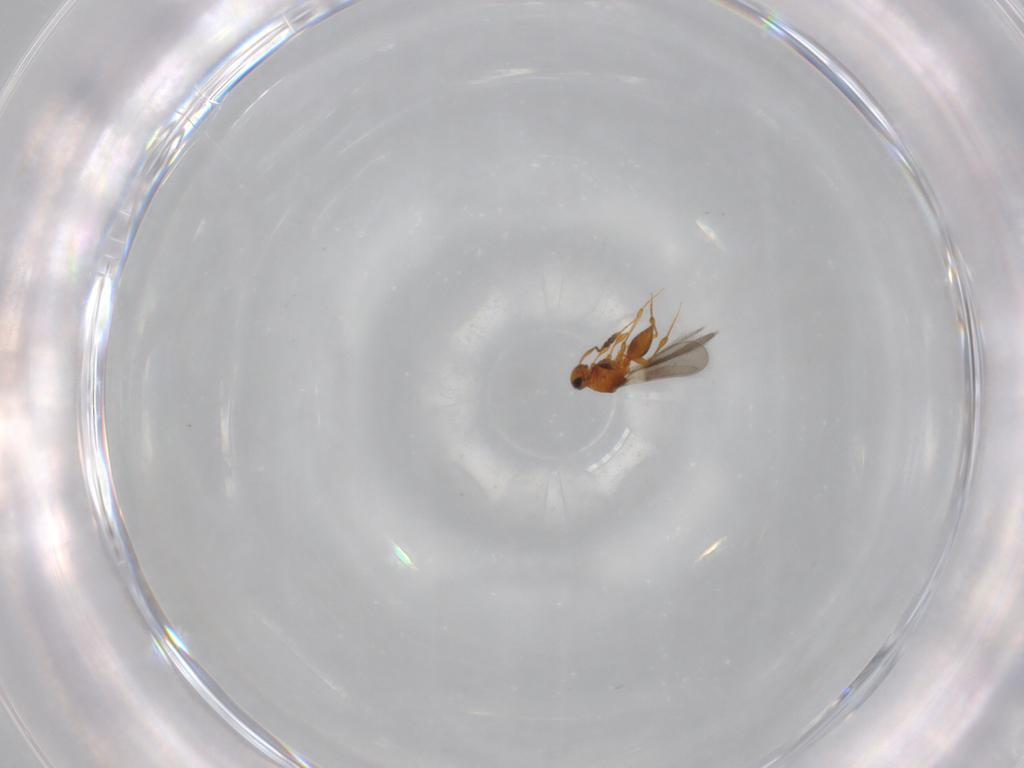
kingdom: Animalia
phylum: Arthropoda
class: Insecta
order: Hymenoptera
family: Platygastridae
